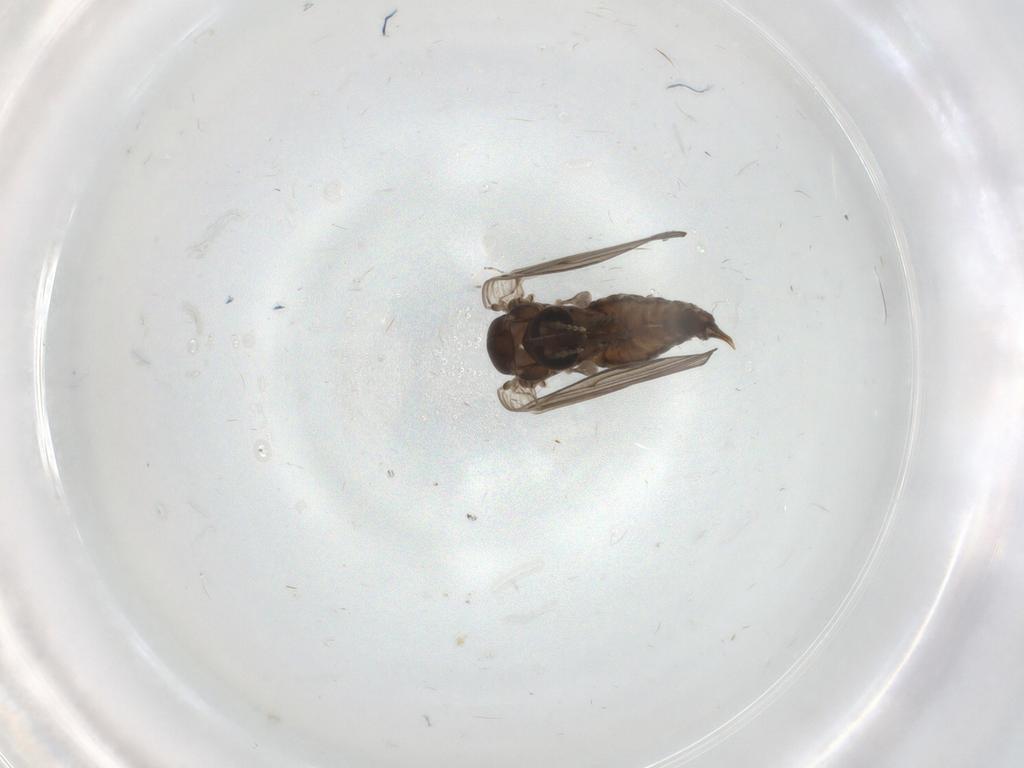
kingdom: Animalia
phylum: Arthropoda
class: Insecta
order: Diptera
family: Psychodidae
